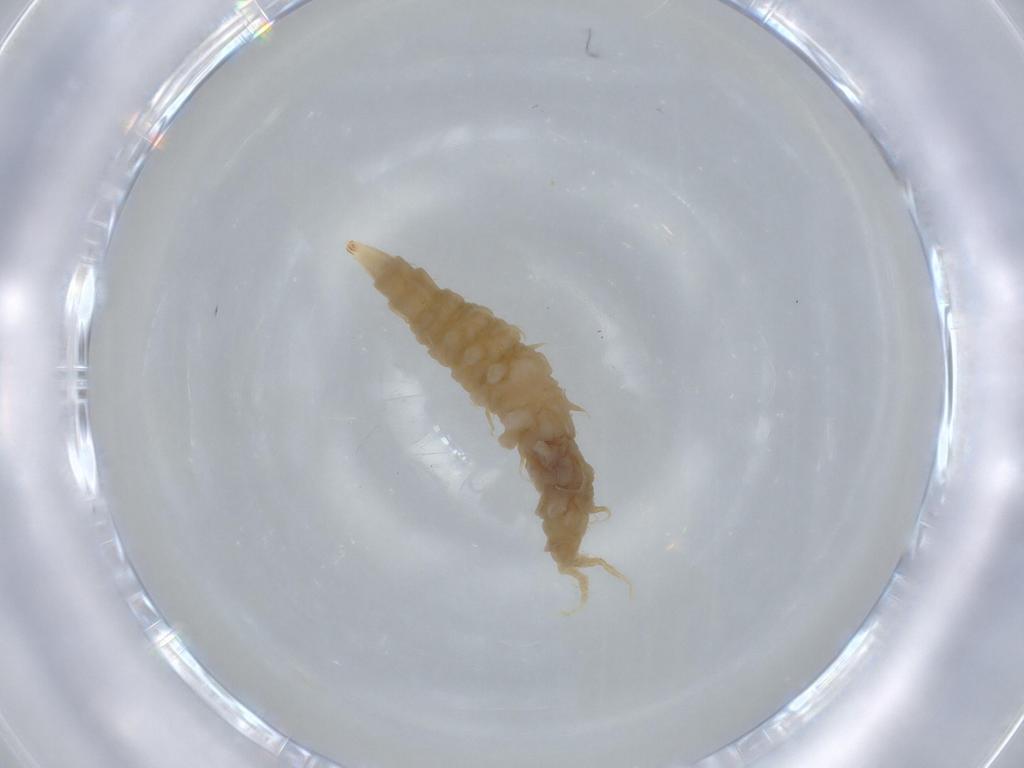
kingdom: Animalia
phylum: Arthropoda
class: Insecta
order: Diptera
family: Athericidae
